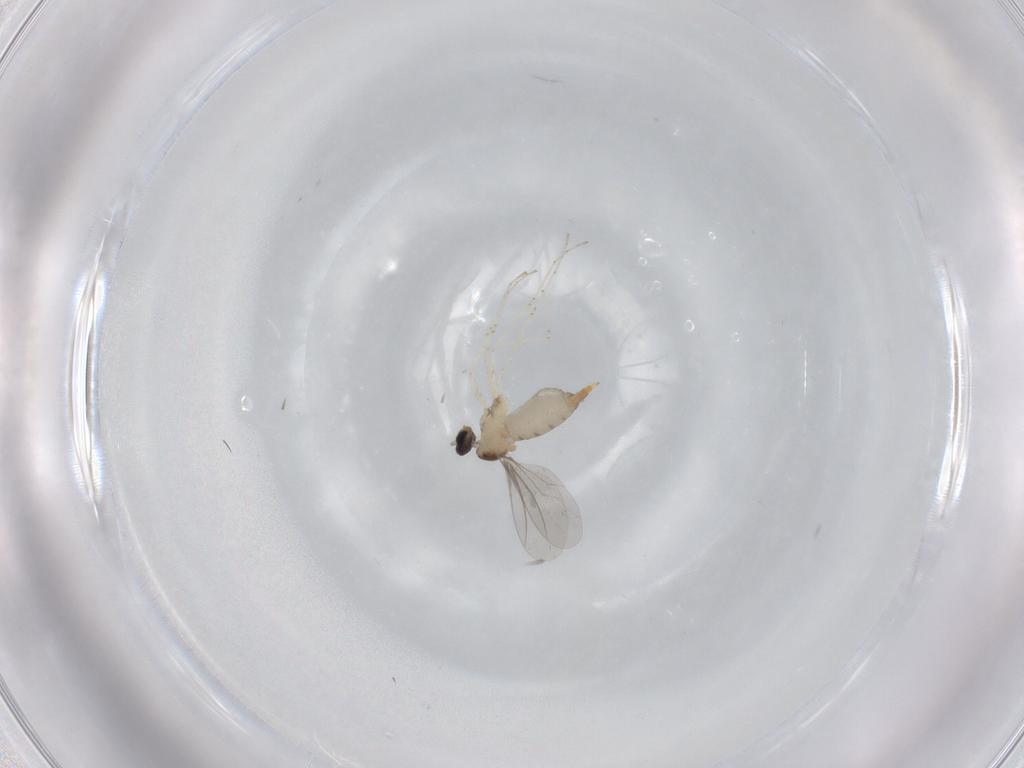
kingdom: Animalia
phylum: Arthropoda
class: Insecta
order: Diptera
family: Cecidomyiidae
